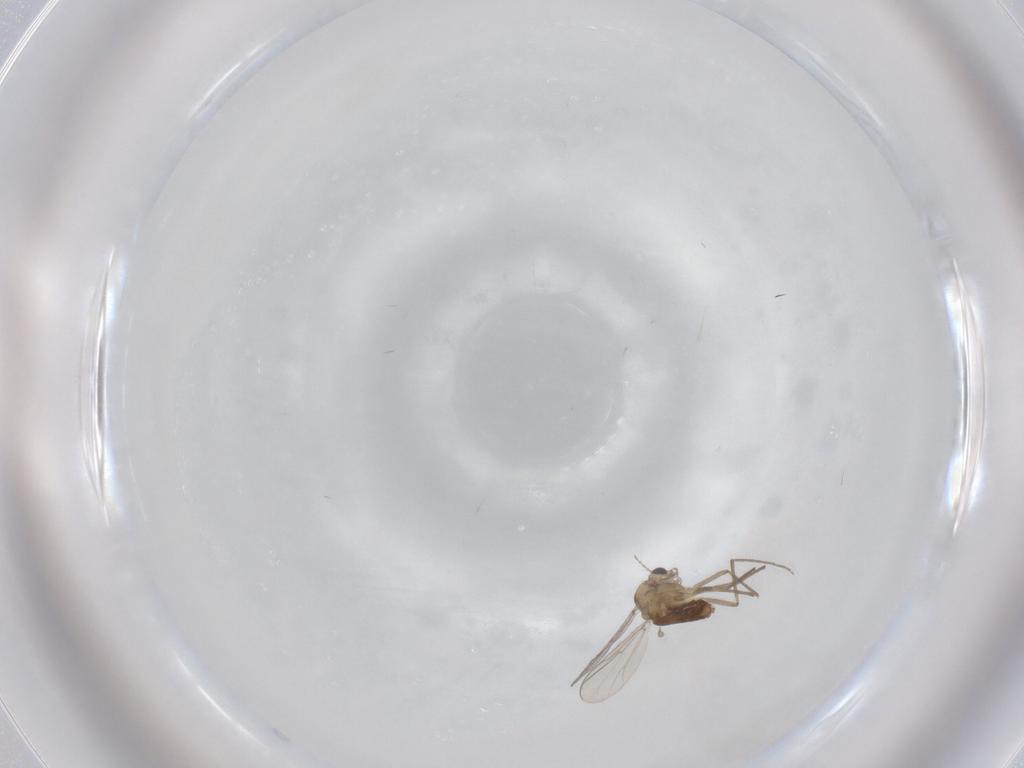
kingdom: Animalia
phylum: Arthropoda
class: Insecta
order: Diptera
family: Chironomidae
